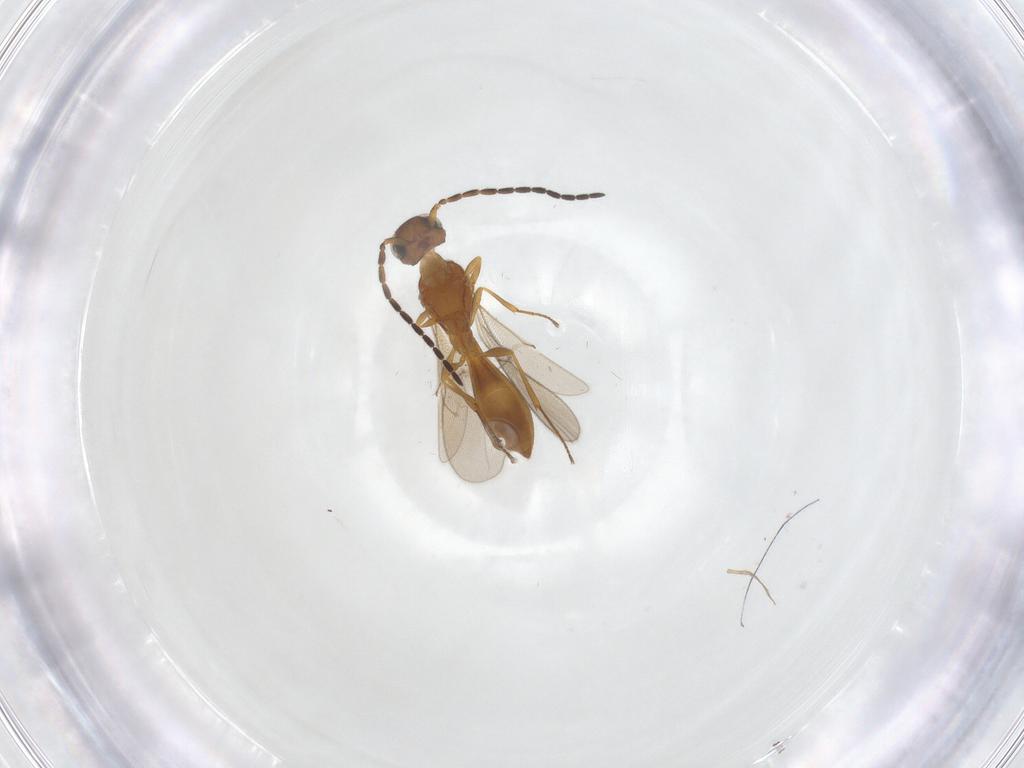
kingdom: Animalia
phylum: Arthropoda
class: Insecta
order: Hymenoptera
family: Scelionidae
